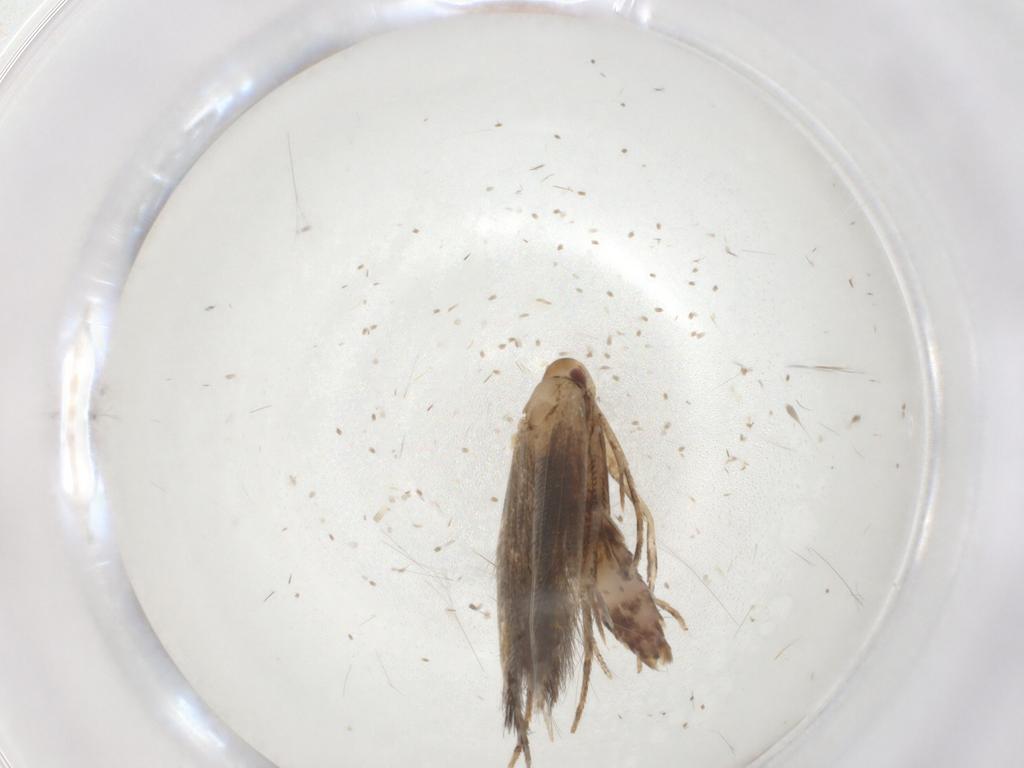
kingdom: Animalia
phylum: Arthropoda
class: Insecta
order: Lepidoptera
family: Cosmopterigidae
